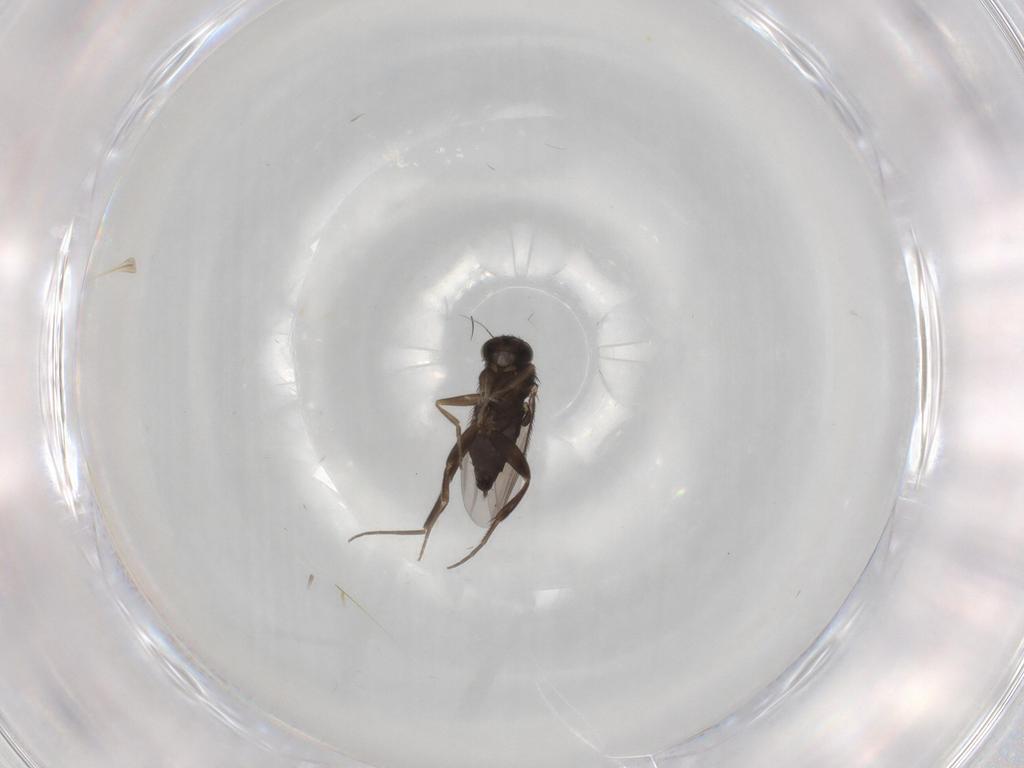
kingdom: Animalia
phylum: Arthropoda
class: Insecta
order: Diptera
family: Phoridae
